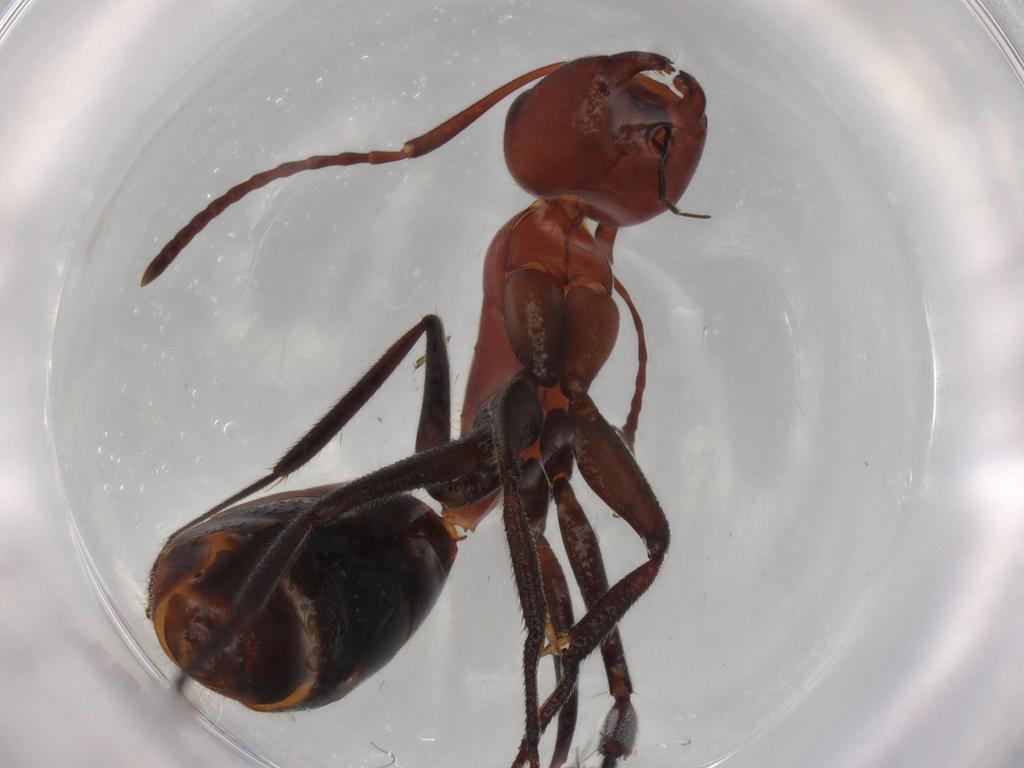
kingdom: Animalia
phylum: Arthropoda
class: Insecta
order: Hymenoptera
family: Formicidae
